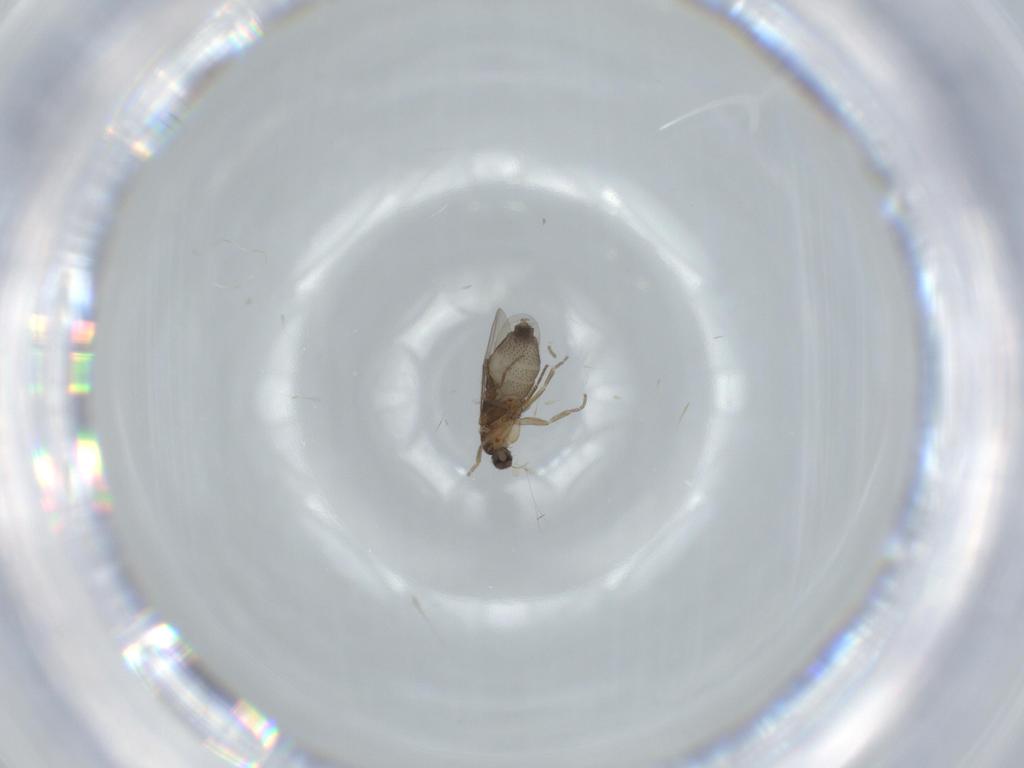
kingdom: Animalia
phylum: Arthropoda
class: Insecta
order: Diptera
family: Phoridae
